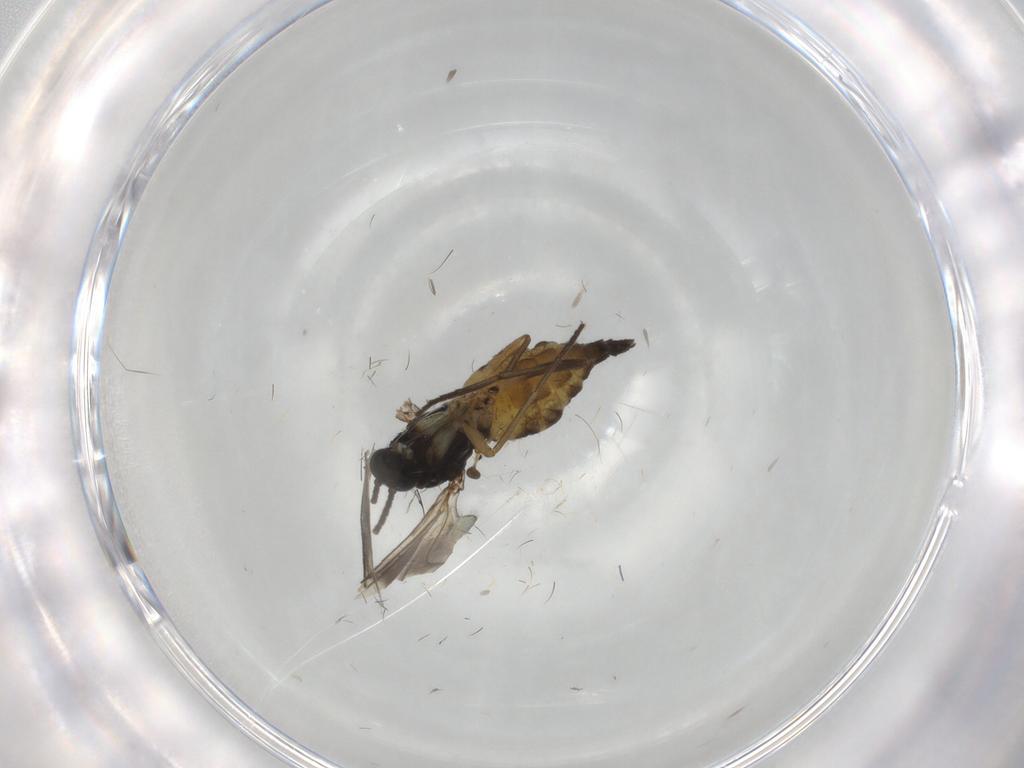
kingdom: Animalia
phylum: Arthropoda
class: Insecta
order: Diptera
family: Sciaridae
